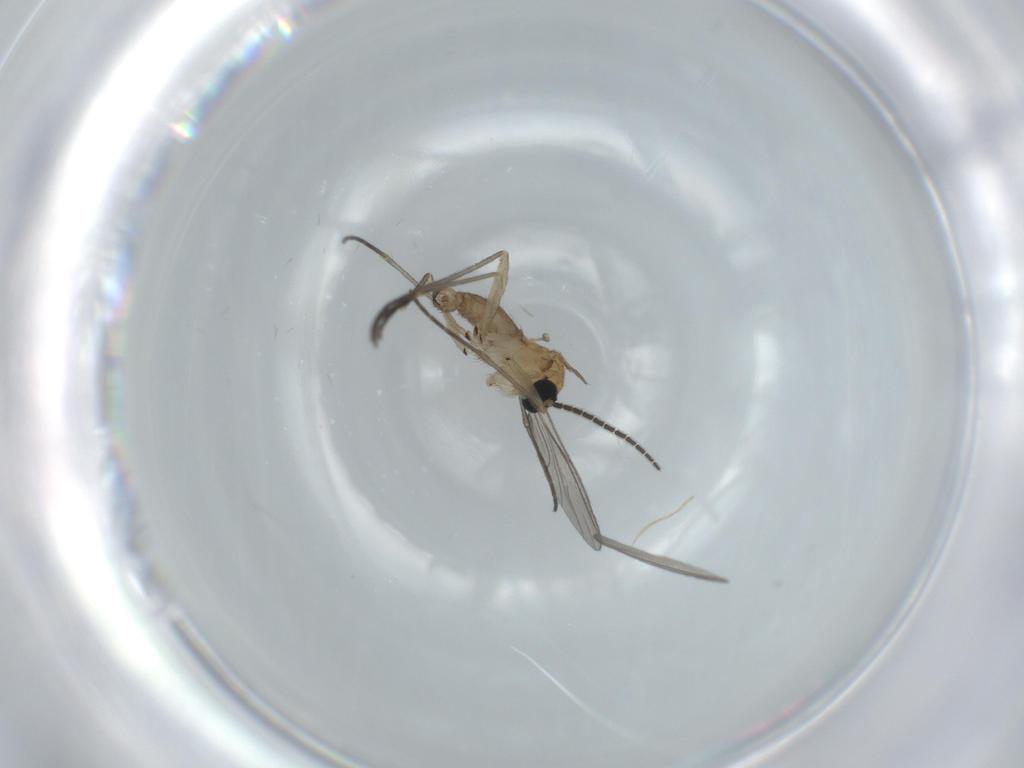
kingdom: Animalia
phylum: Arthropoda
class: Insecta
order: Diptera
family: Sciaridae
